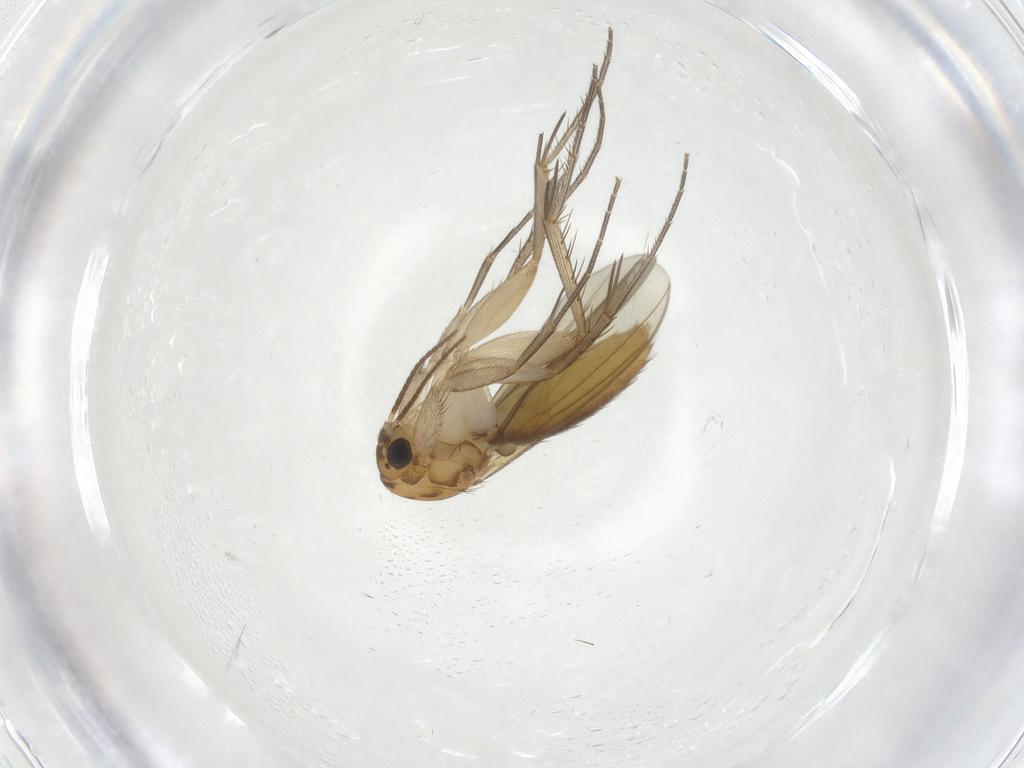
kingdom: Animalia
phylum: Arthropoda
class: Insecta
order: Diptera
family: Mycetophilidae
